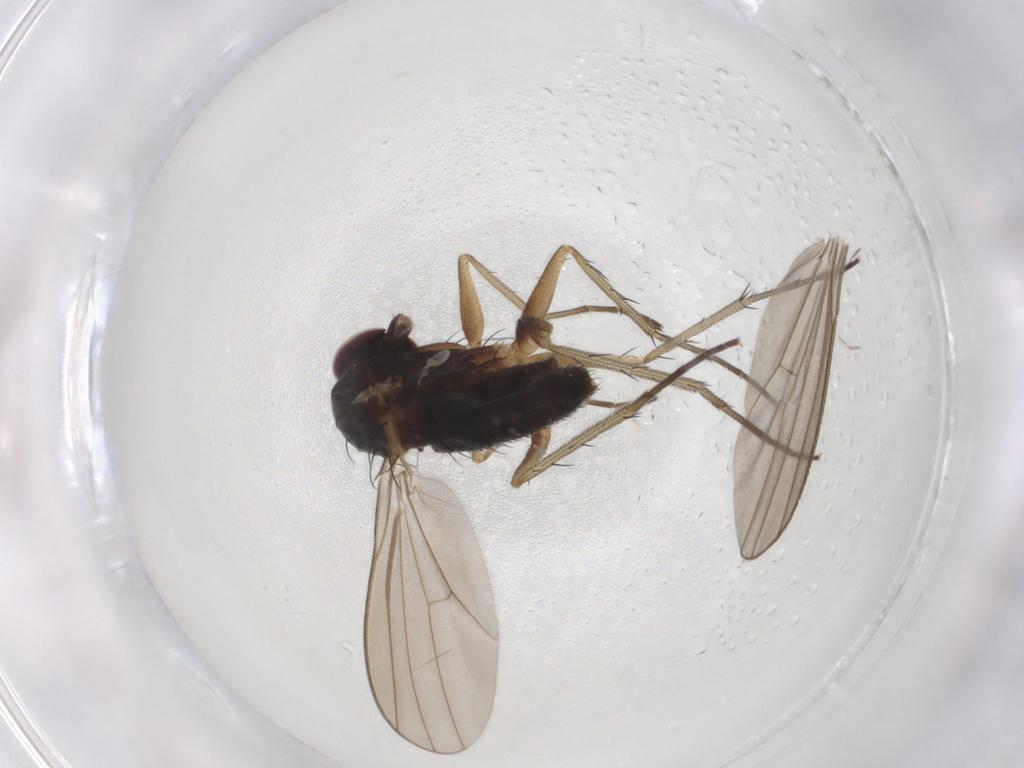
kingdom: Animalia
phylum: Arthropoda
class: Insecta
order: Diptera
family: Dolichopodidae
